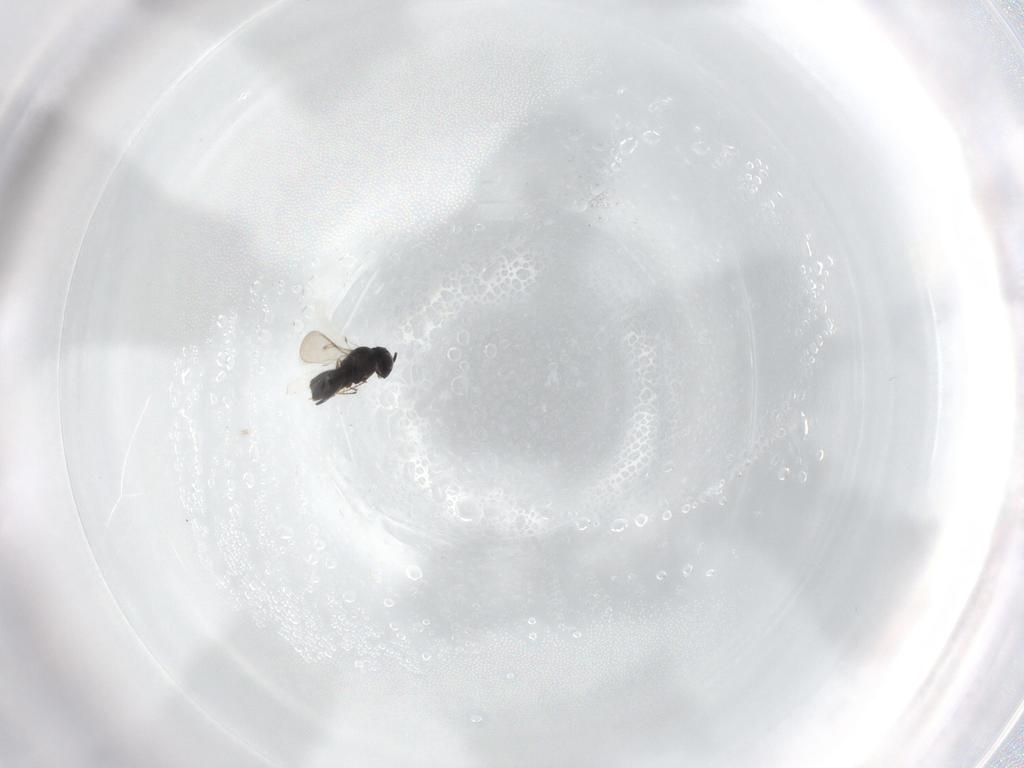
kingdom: Animalia
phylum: Arthropoda
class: Insecta
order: Hymenoptera
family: Scelionidae
